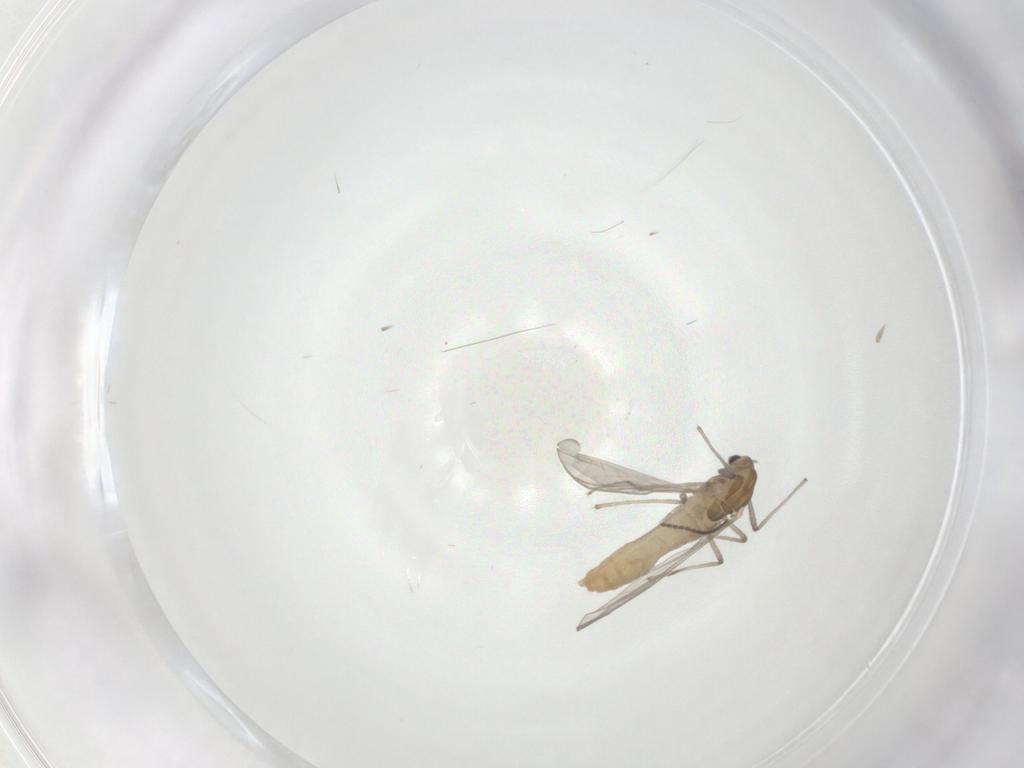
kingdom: Animalia
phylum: Arthropoda
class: Insecta
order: Diptera
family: Chironomidae
